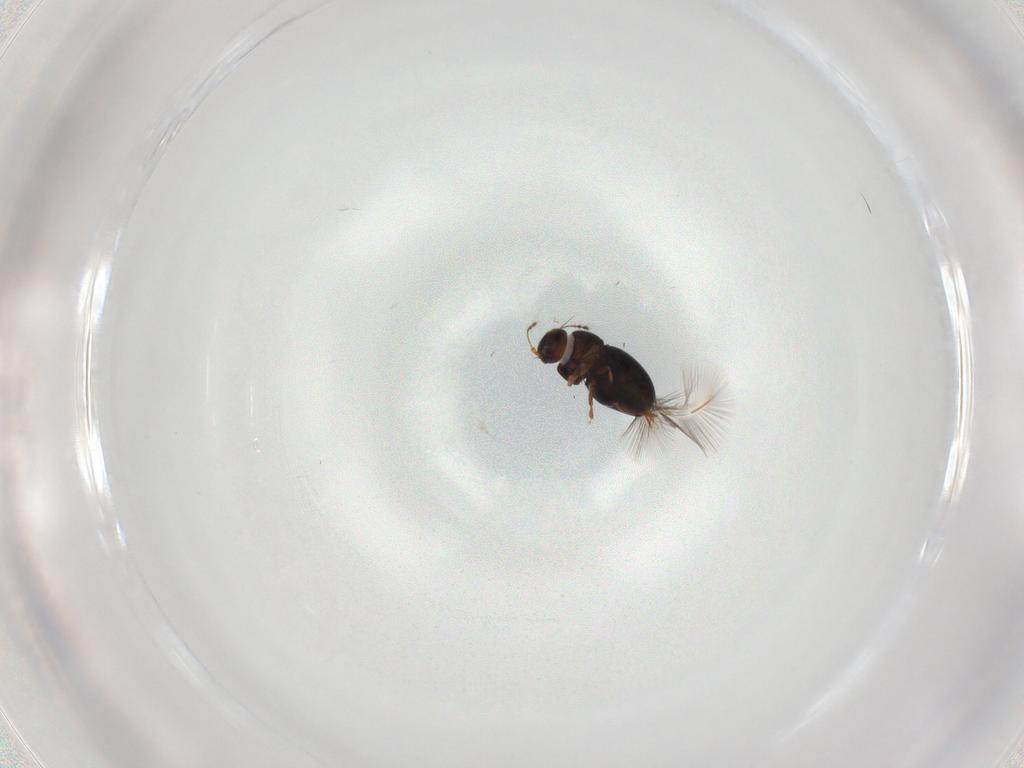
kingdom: Animalia
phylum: Arthropoda
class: Insecta
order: Coleoptera
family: Ptiliidae
